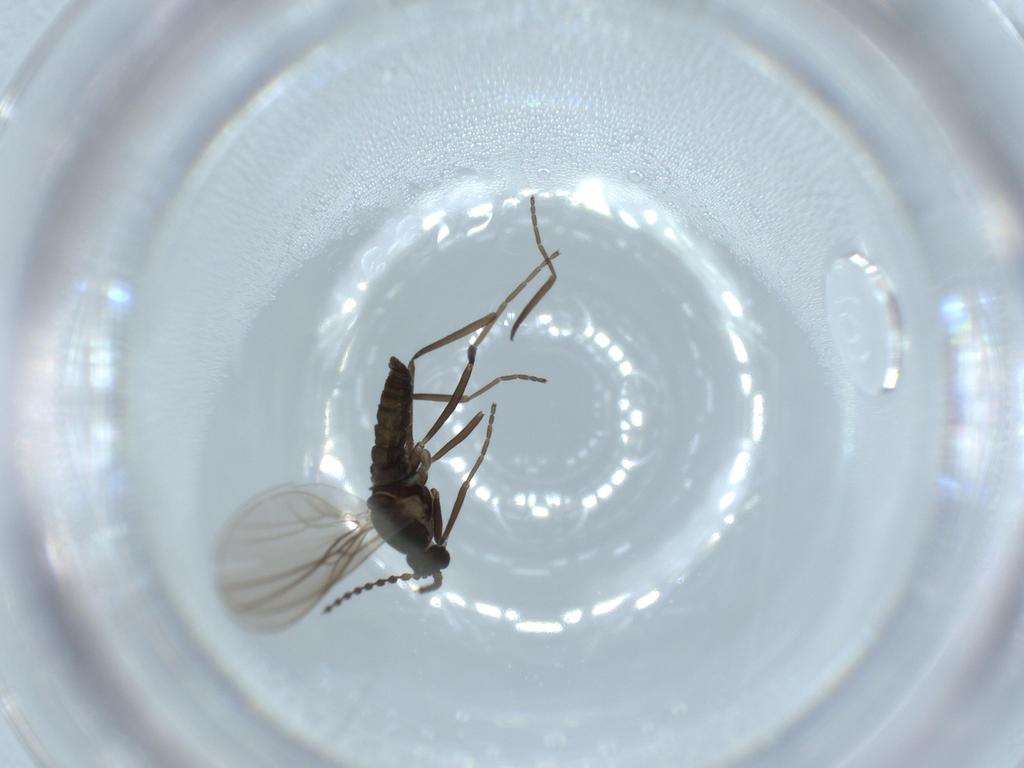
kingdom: Animalia
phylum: Arthropoda
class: Insecta
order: Diptera
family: Cecidomyiidae
